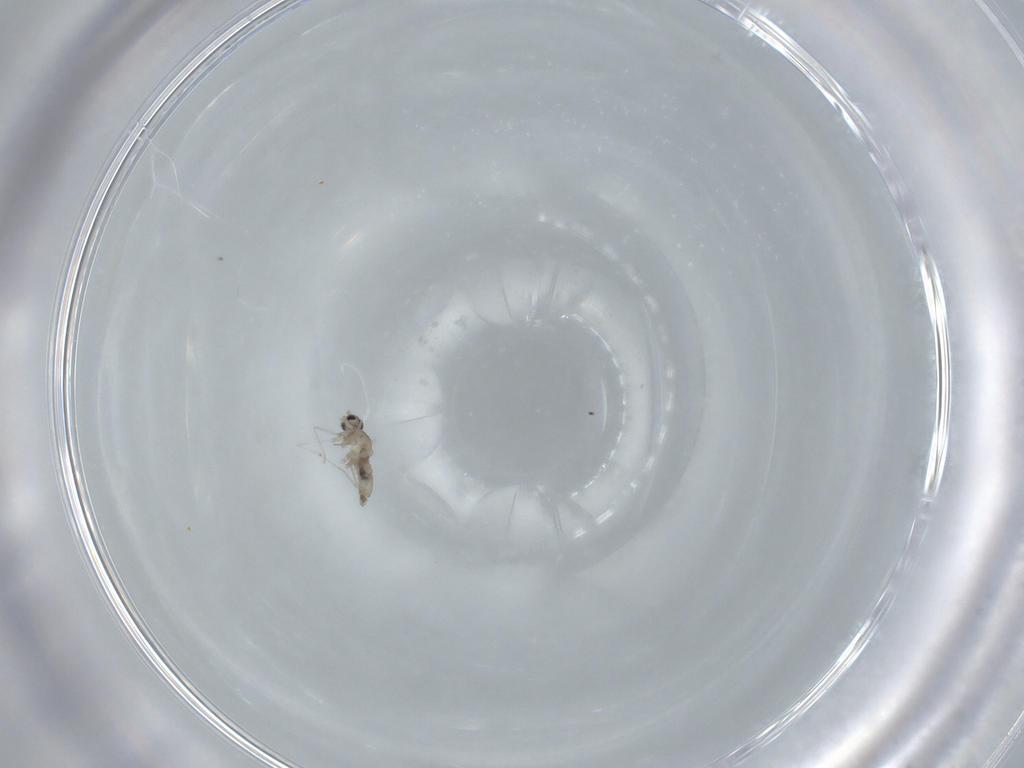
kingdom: Animalia
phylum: Arthropoda
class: Insecta
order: Diptera
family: Cecidomyiidae
